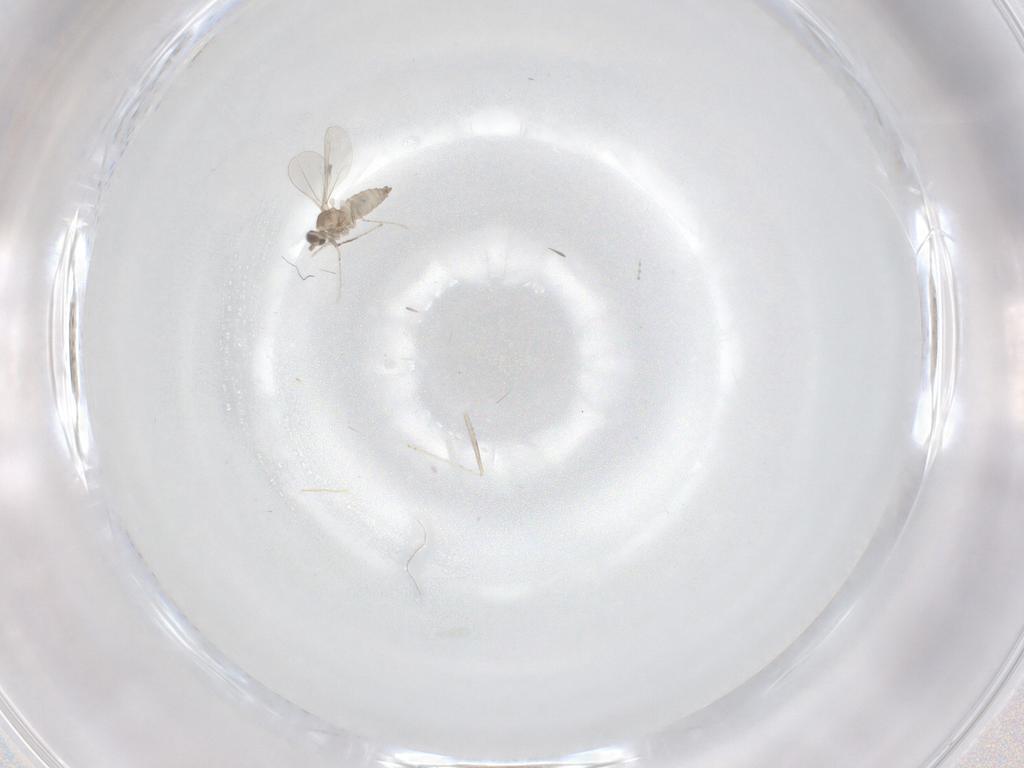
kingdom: Animalia
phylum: Arthropoda
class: Insecta
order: Diptera
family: Cecidomyiidae
